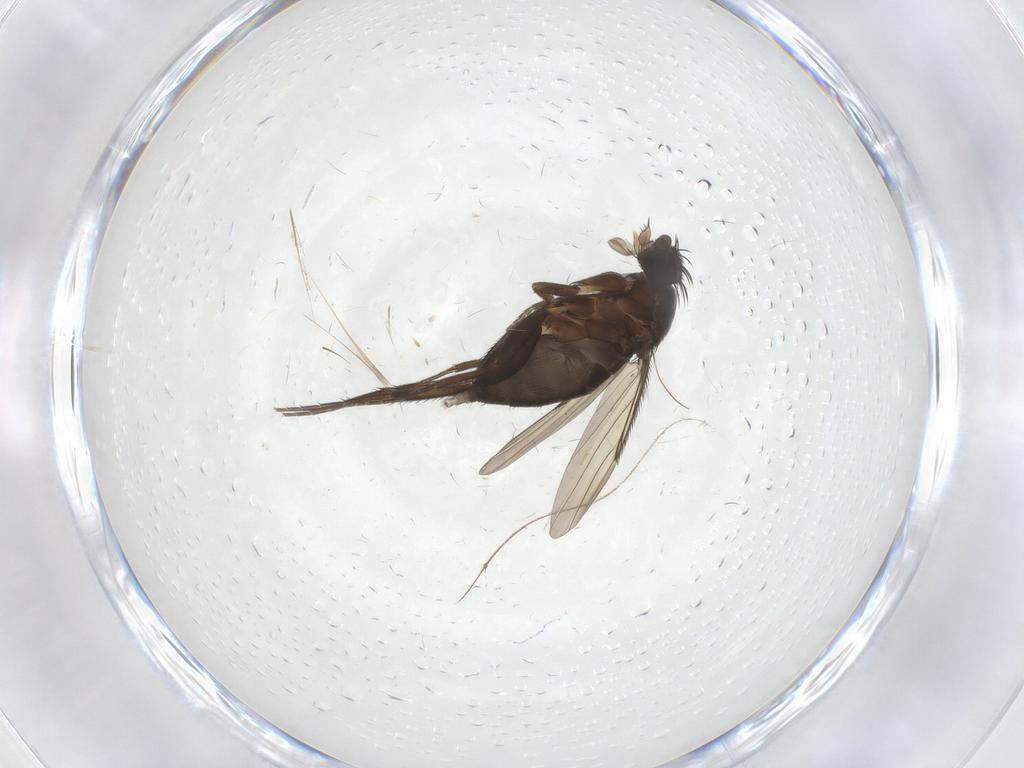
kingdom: Animalia
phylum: Arthropoda
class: Insecta
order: Diptera
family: Phoridae
